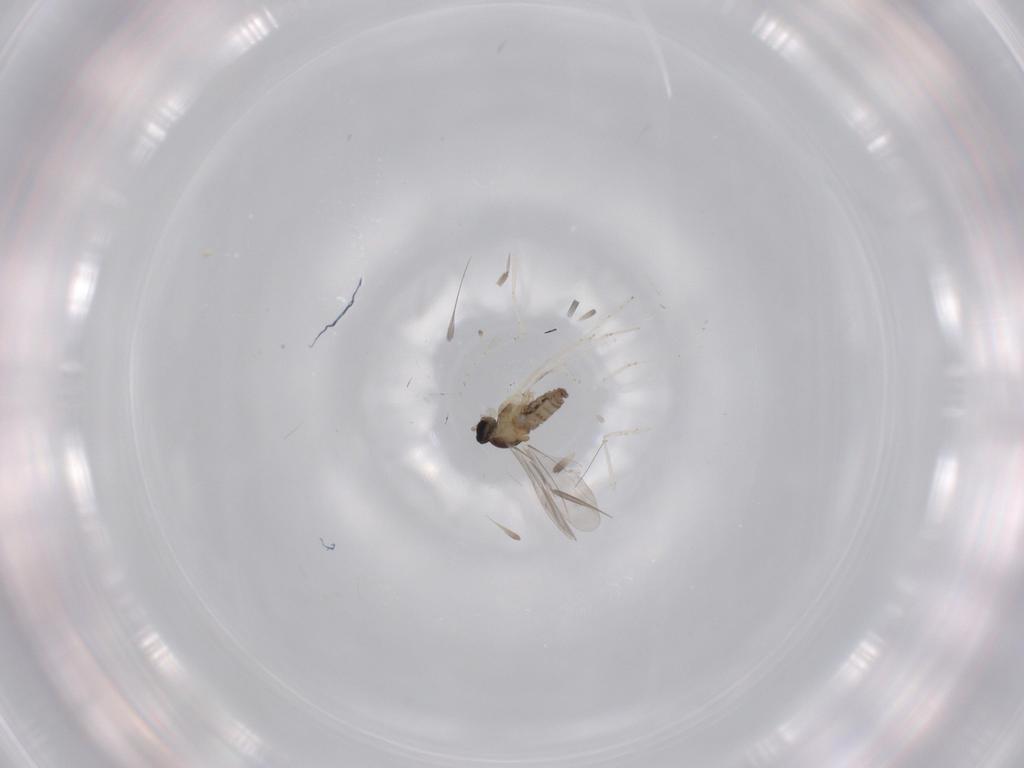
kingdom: Animalia
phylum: Arthropoda
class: Insecta
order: Diptera
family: Cecidomyiidae
